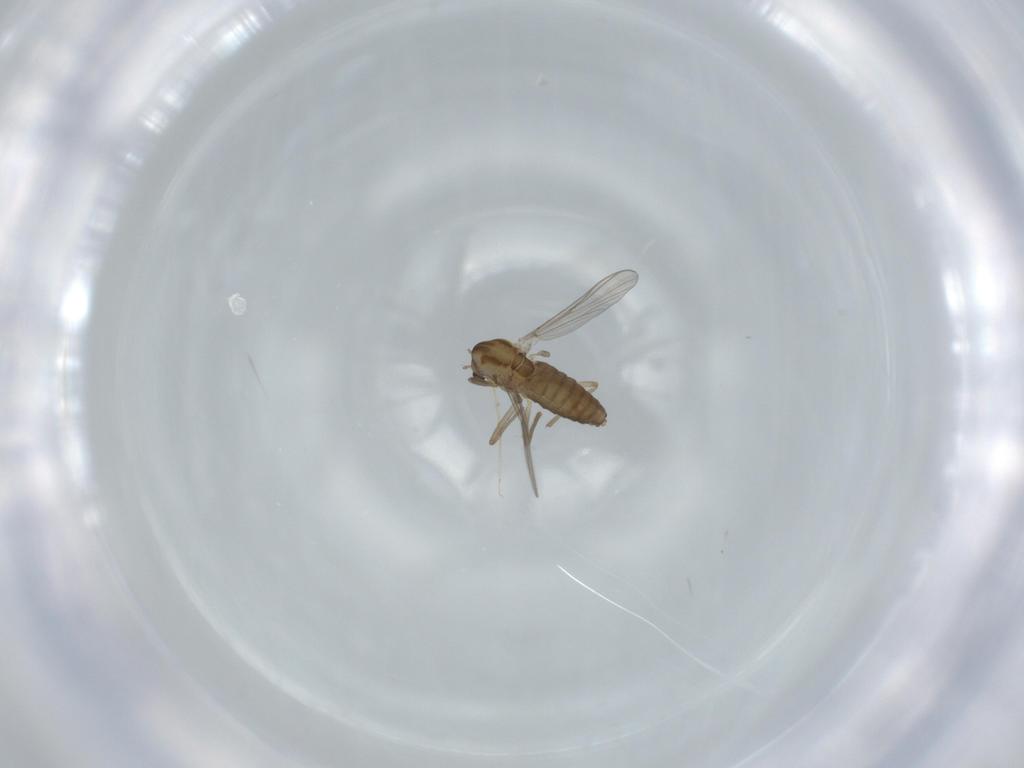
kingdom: Animalia
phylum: Arthropoda
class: Insecta
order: Diptera
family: Chironomidae
